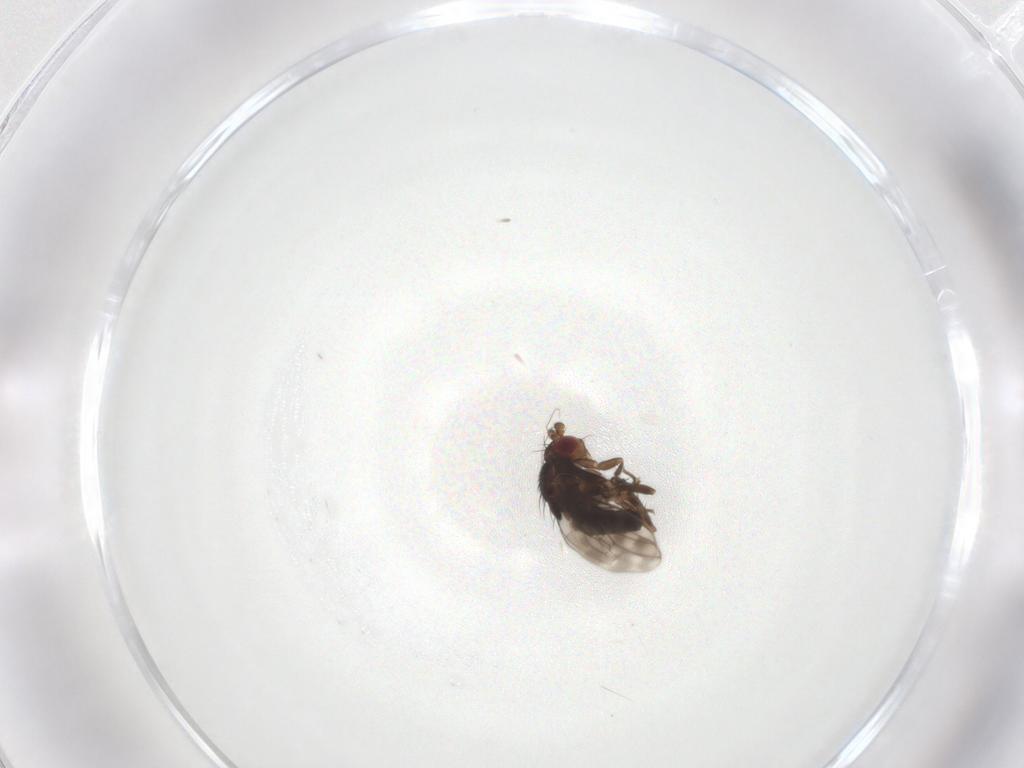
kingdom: Animalia
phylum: Arthropoda
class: Insecta
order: Diptera
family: Sphaeroceridae
